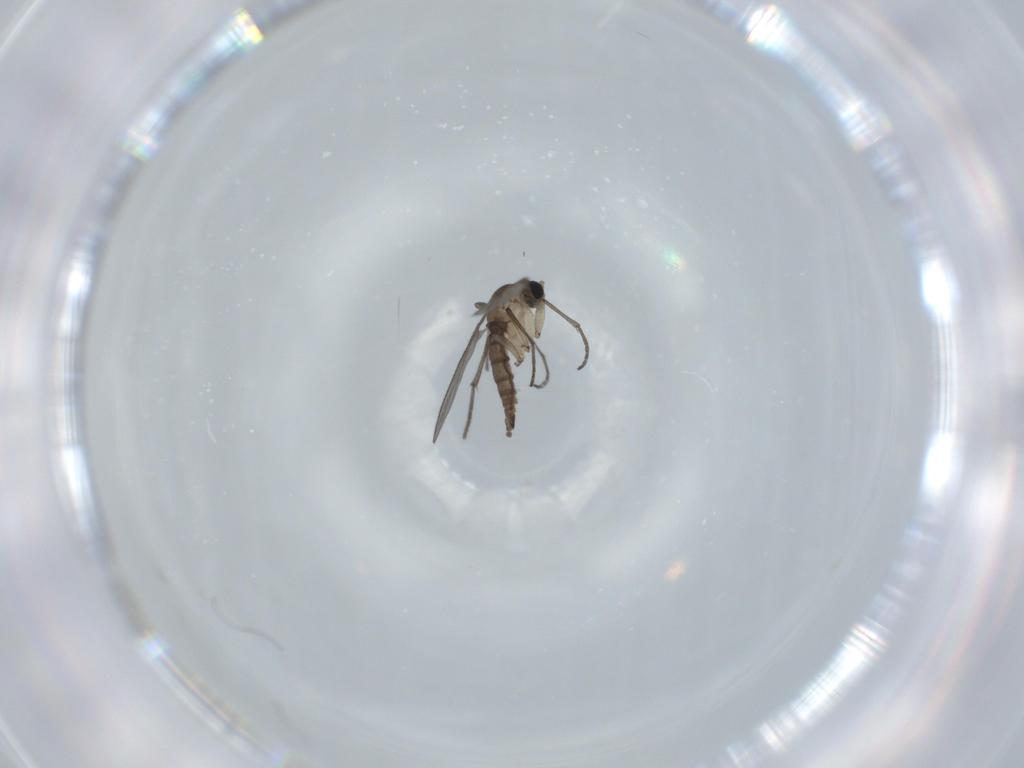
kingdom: Animalia
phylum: Arthropoda
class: Insecta
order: Diptera
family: Sciaridae
